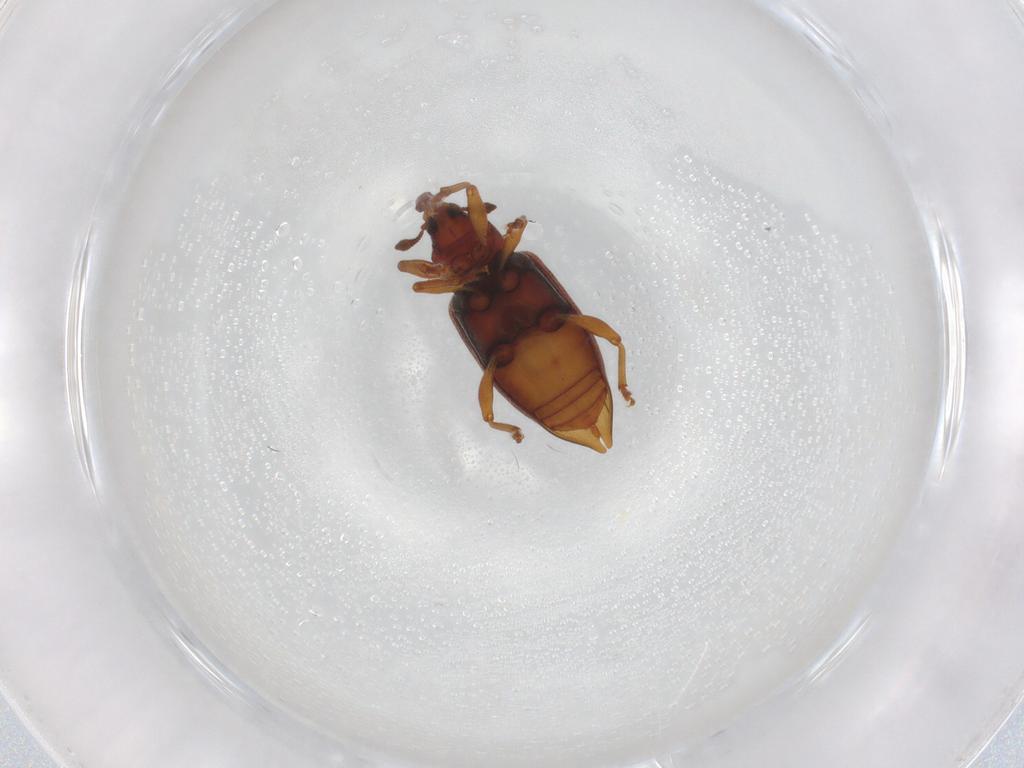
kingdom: Animalia
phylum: Arthropoda
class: Insecta
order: Coleoptera
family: Curculionidae
